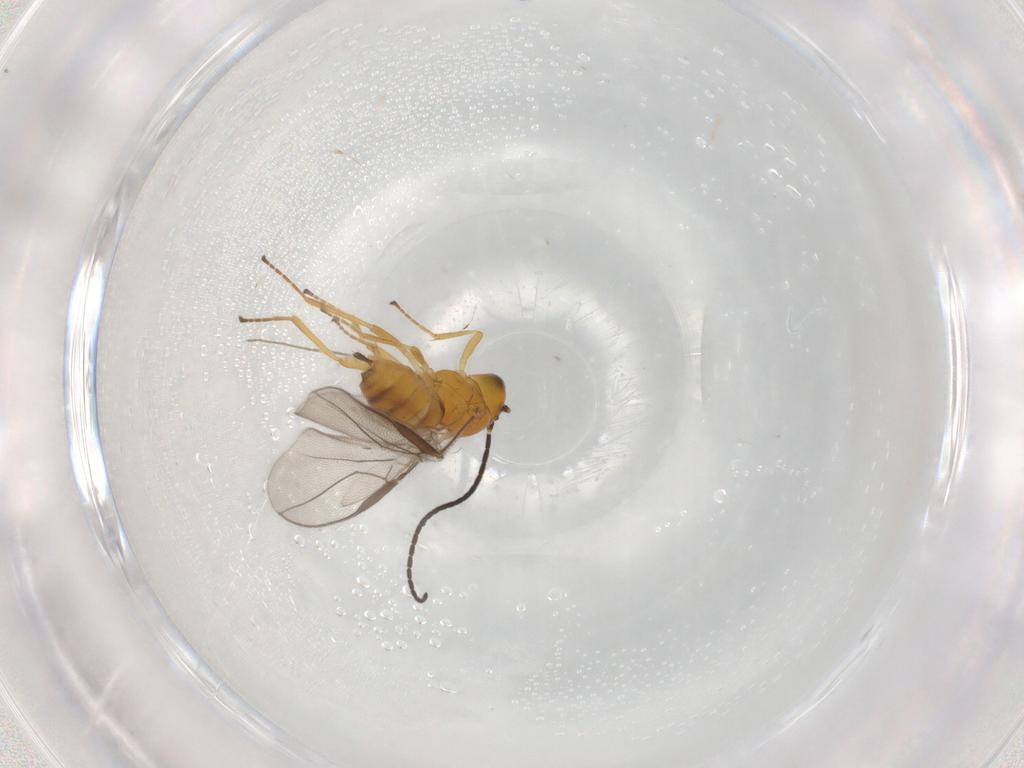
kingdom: Animalia
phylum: Arthropoda
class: Insecta
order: Hymenoptera
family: Braconidae
